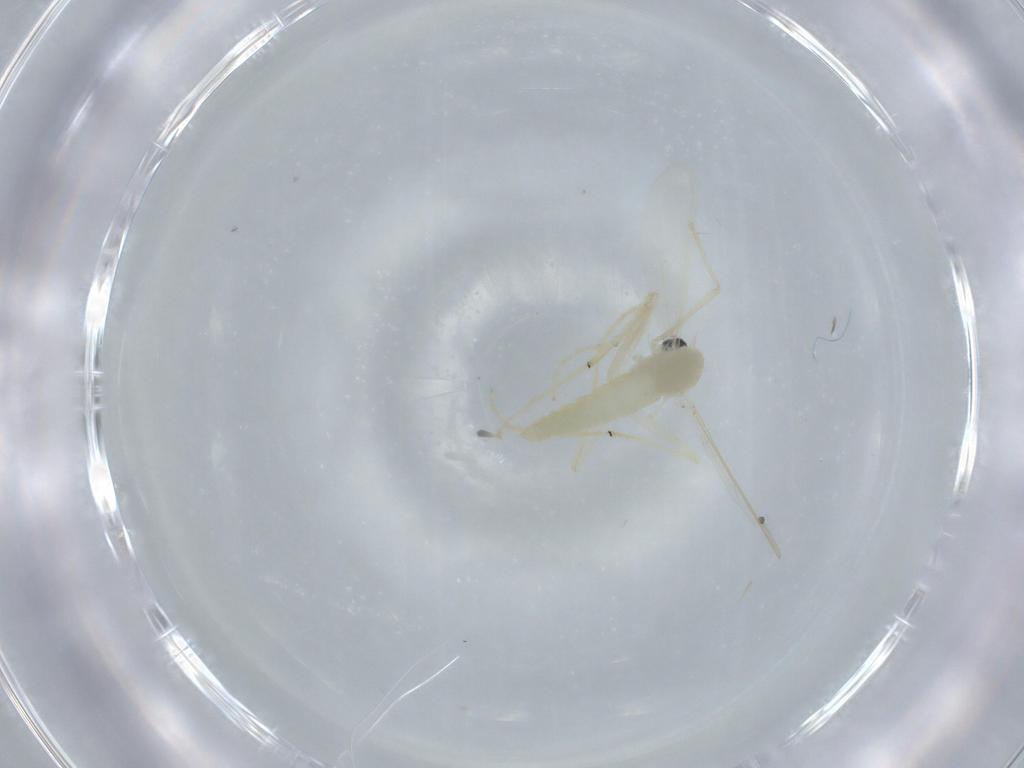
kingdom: Animalia
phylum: Arthropoda
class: Insecta
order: Diptera
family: Chironomidae
